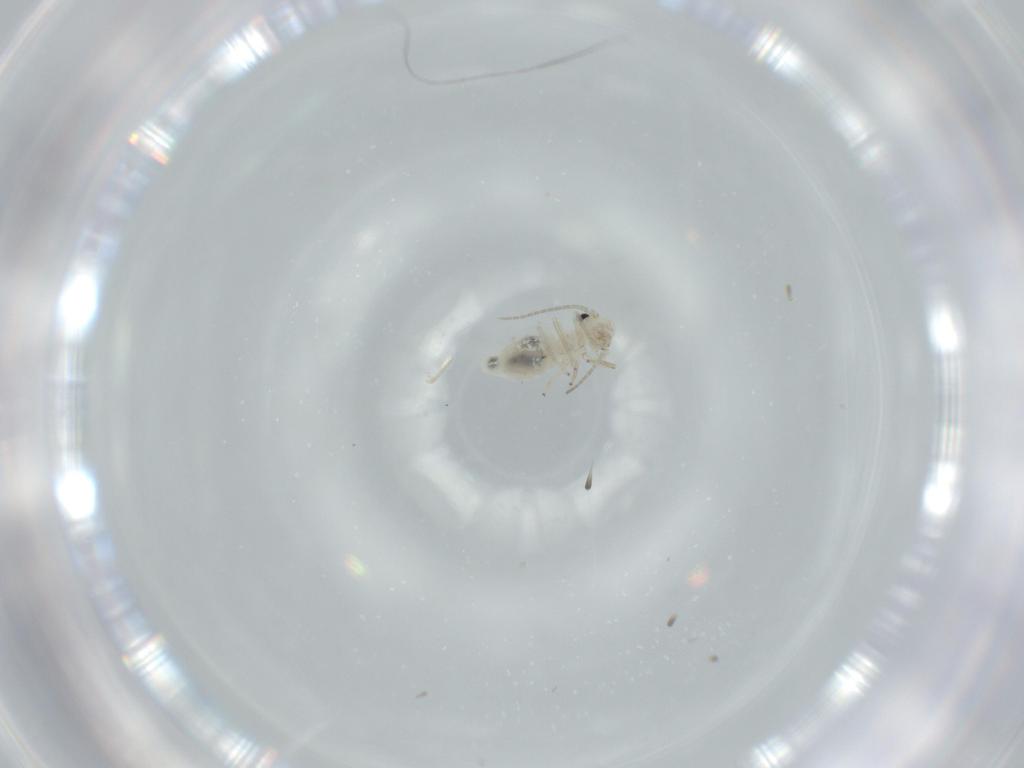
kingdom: Animalia
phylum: Arthropoda
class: Insecta
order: Psocodea
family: Caeciliusidae
